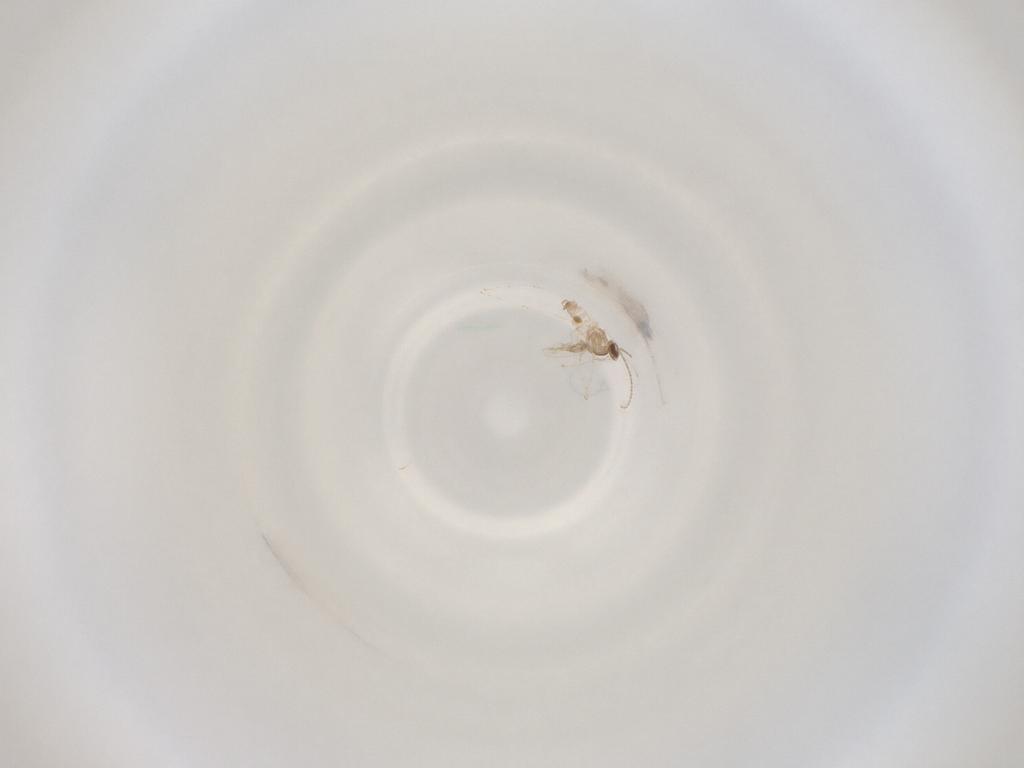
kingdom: Animalia
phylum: Arthropoda
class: Insecta
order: Diptera
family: Cecidomyiidae
